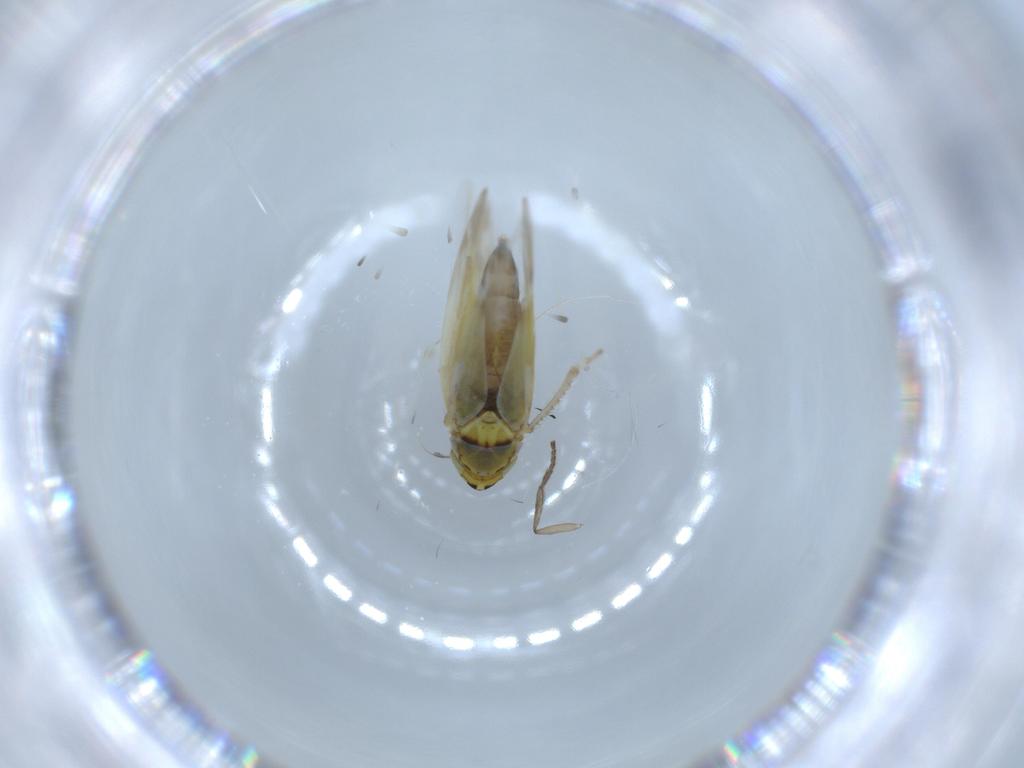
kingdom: Animalia
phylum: Arthropoda
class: Insecta
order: Hemiptera
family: Cicadellidae
